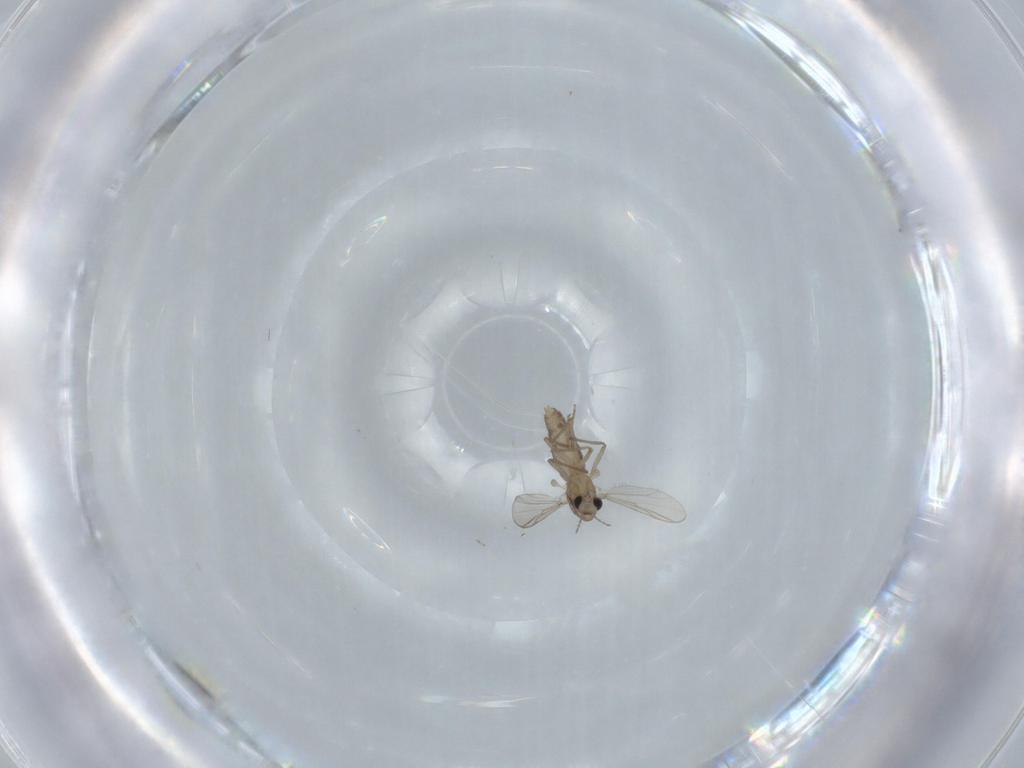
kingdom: Animalia
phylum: Arthropoda
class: Insecta
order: Diptera
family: Chironomidae
